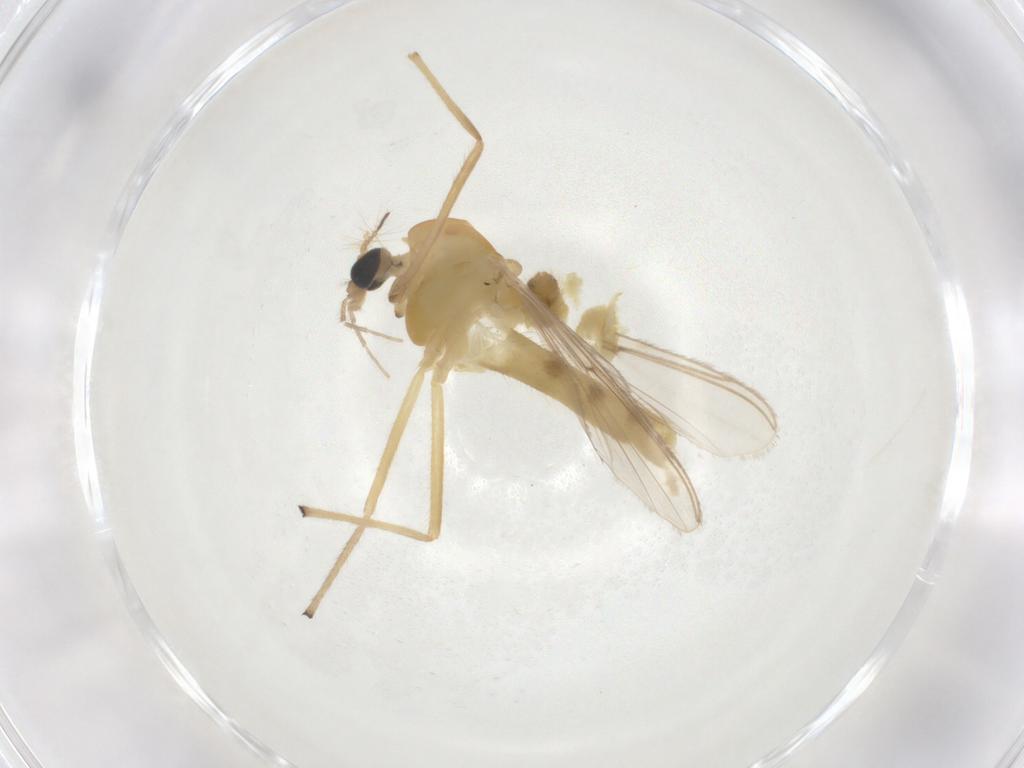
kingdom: Animalia
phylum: Arthropoda
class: Insecta
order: Diptera
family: Chironomidae
